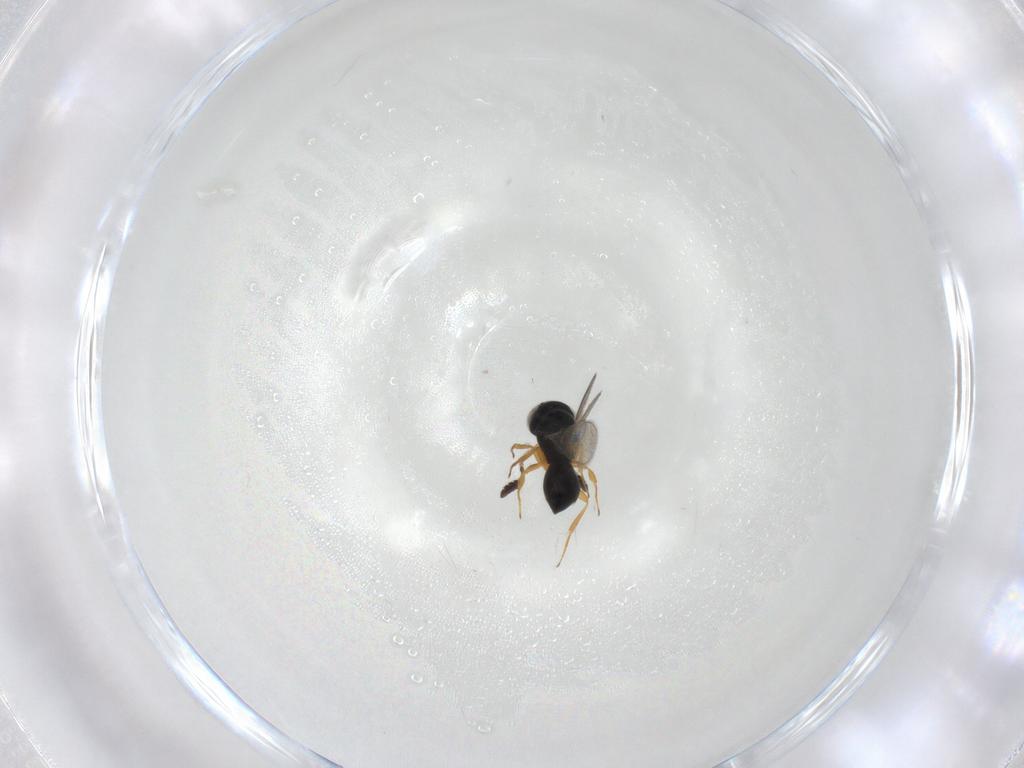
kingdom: Animalia
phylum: Arthropoda
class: Insecta
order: Hymenoptera
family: Scelionidae
